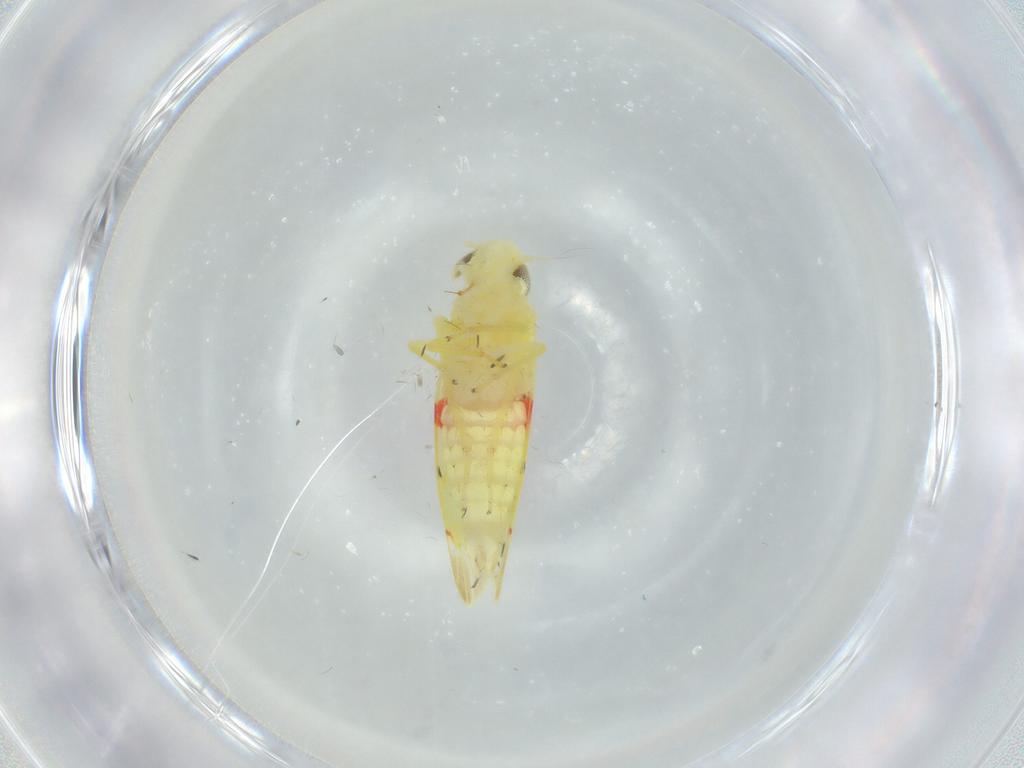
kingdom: Animalia
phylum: Arthropoda
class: Insecta
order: Hemiptera
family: Cicadellidae
